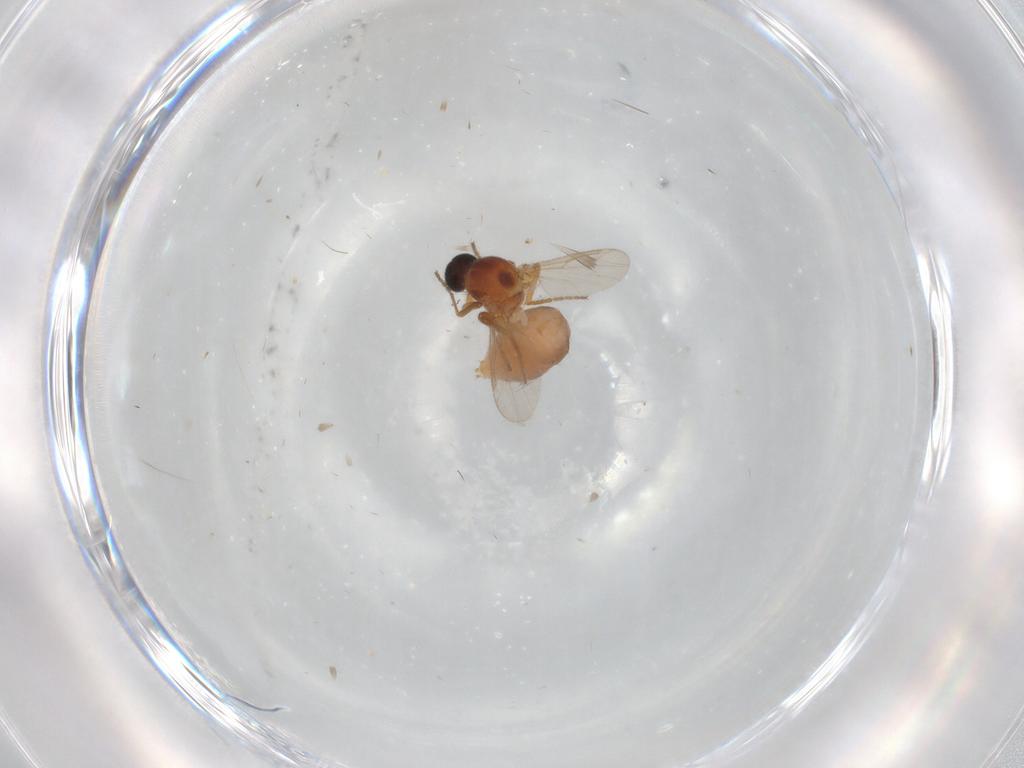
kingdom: Animalia
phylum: Arthropoda
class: Insecta
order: Diptera
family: Ceratopogonidae
